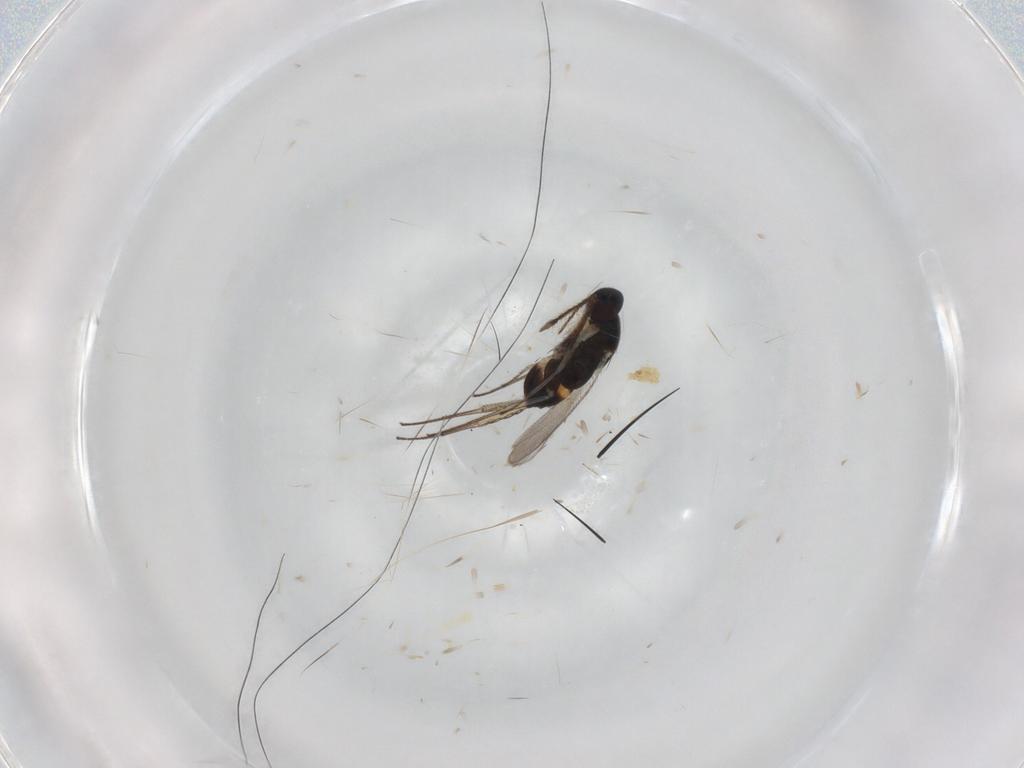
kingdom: Animalia
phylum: Arthropoda
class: Insecta
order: Hymenoptera
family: Eulophidae
